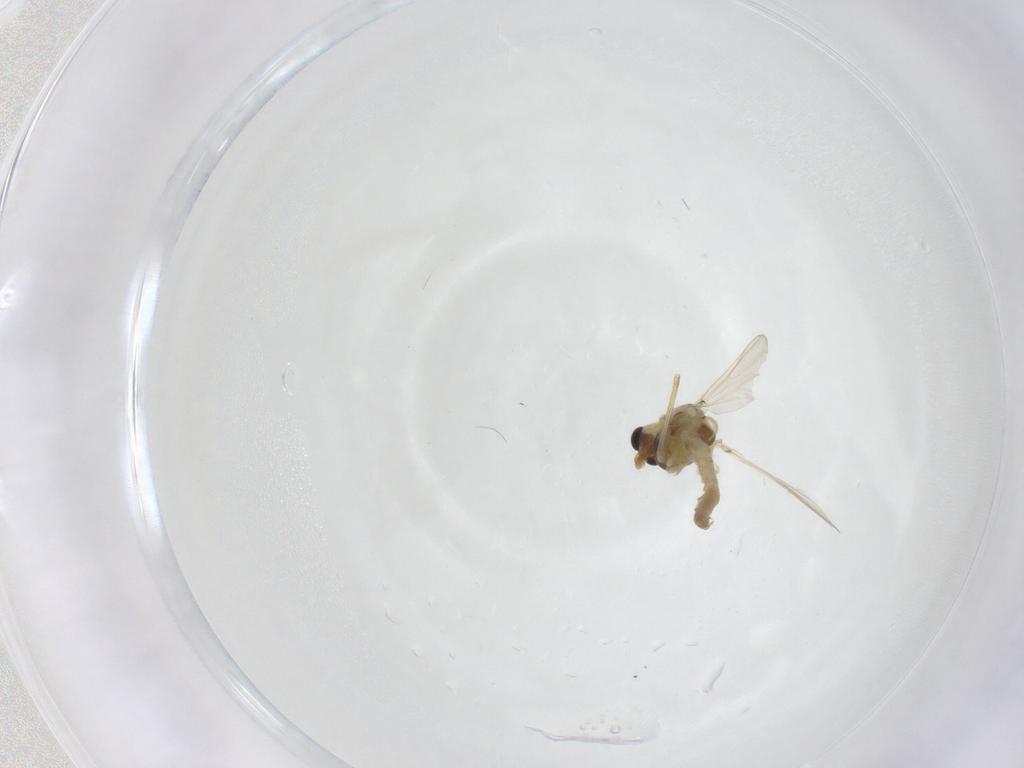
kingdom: Animalia
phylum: Arthropoda
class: Insecta
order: Diptera
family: Chironomidae
